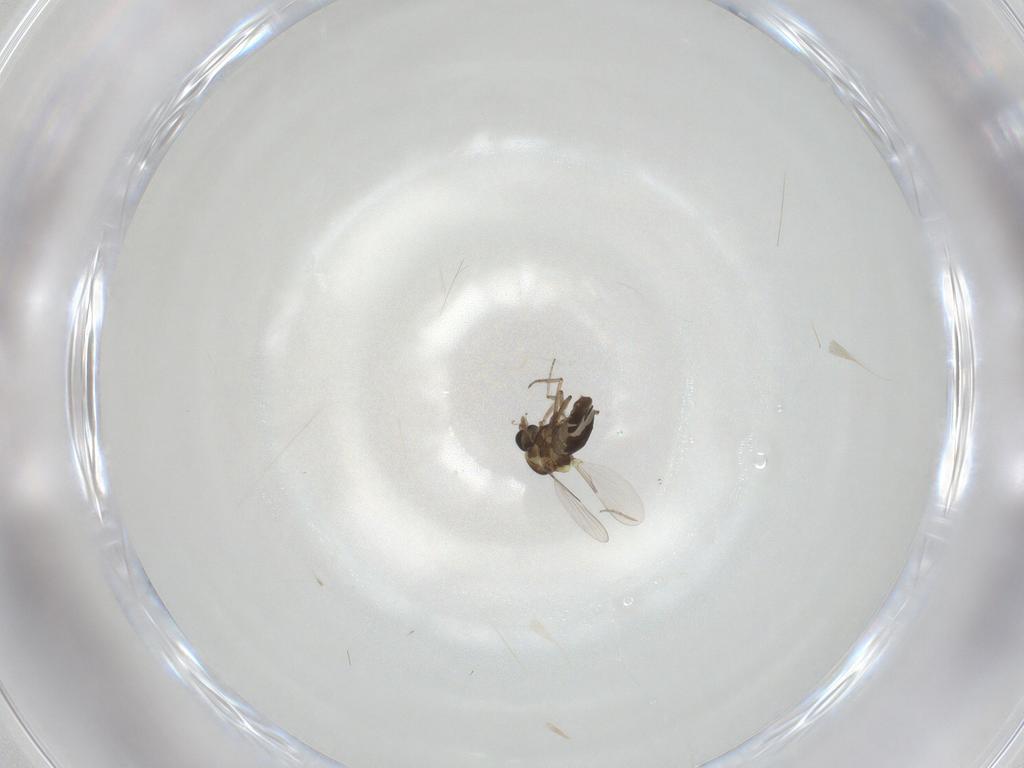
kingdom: Animalia
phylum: Arthropoda
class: Insecta
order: Diptera
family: Ceratopogonidae
